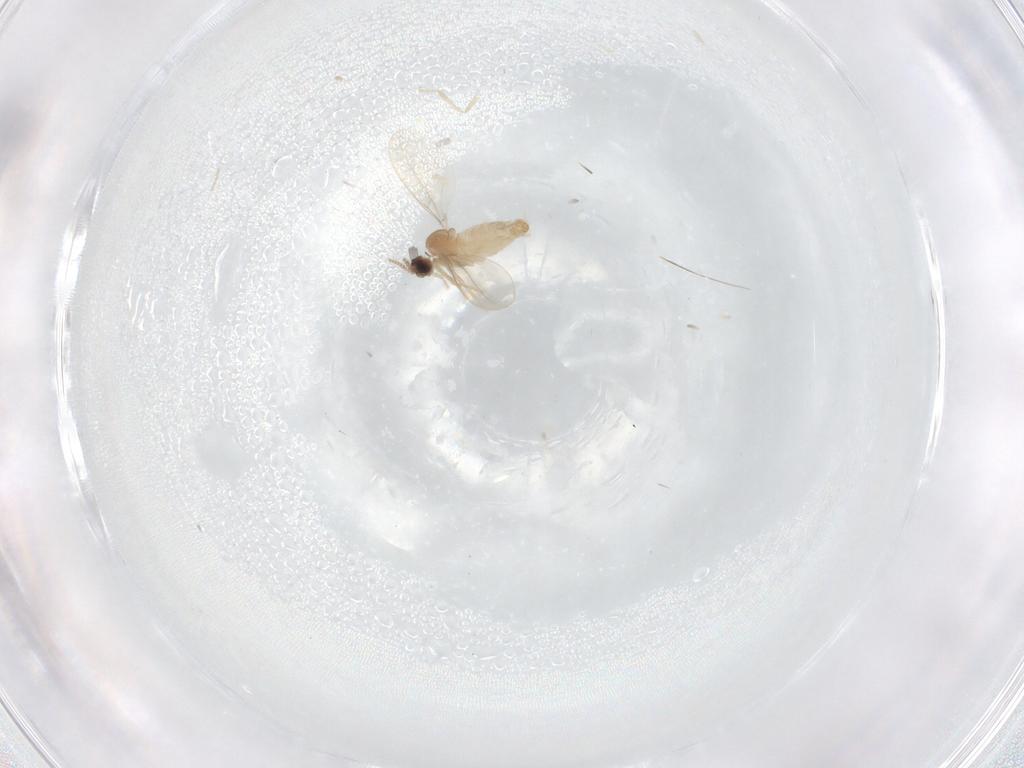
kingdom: Animalia
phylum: Arthropoda
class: Insecta
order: Diptera
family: Cecidomyiidae
